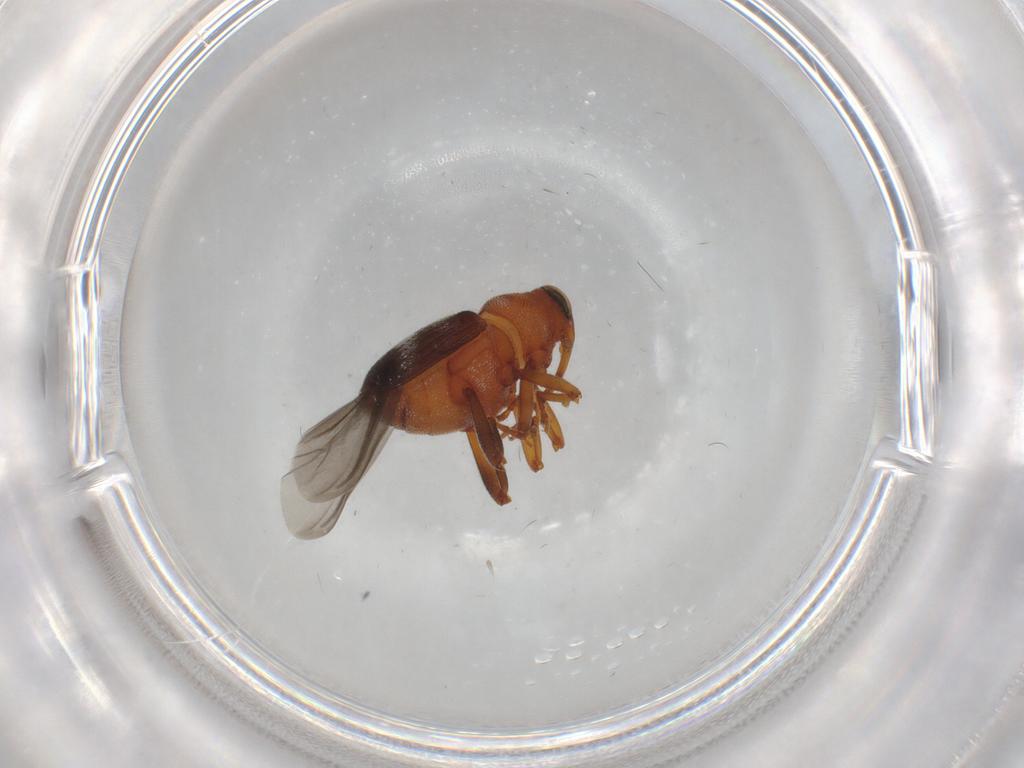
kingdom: Animalia
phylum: Arthropoda
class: Insecta
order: Coleoptera
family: Curculionidae
